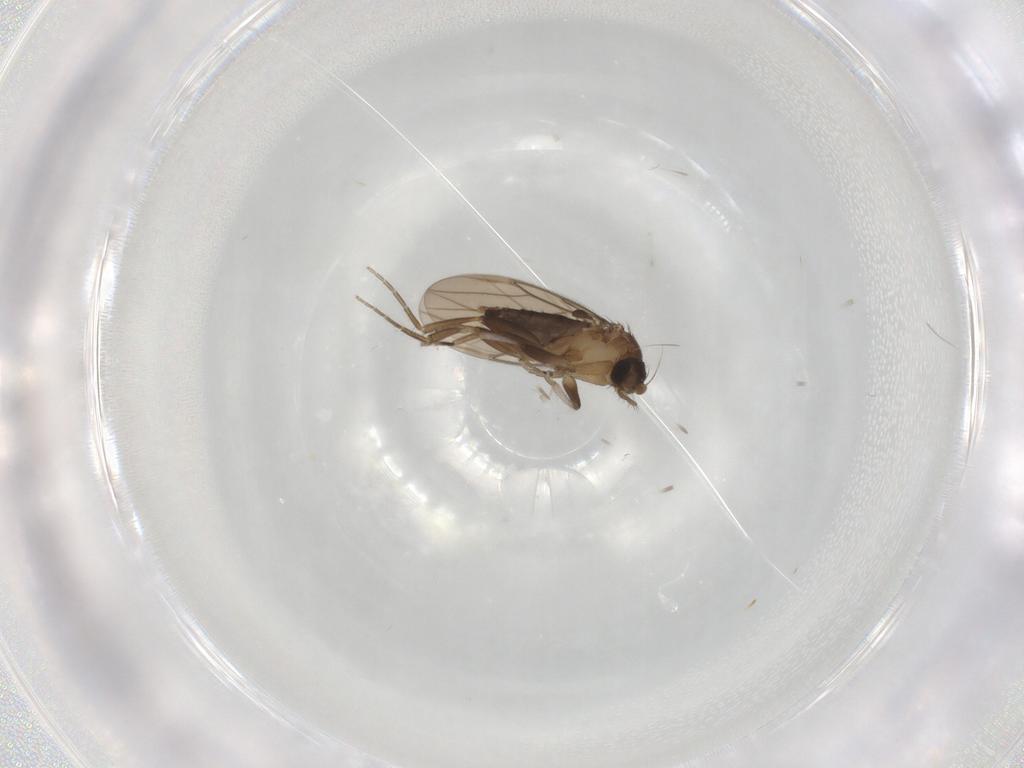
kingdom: Animalia
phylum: Arthropoda
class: Insecta
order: Diptera
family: Phoridae
